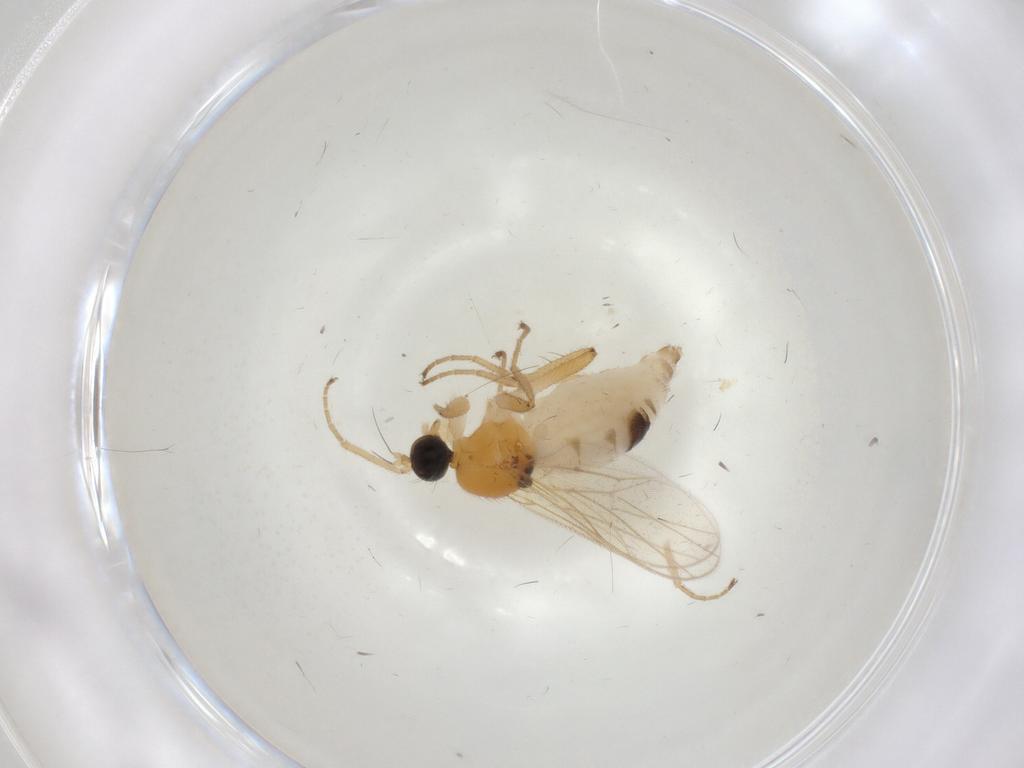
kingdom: Animalia
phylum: Arthropoda
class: Insecta
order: Diptera
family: Hybotidae
